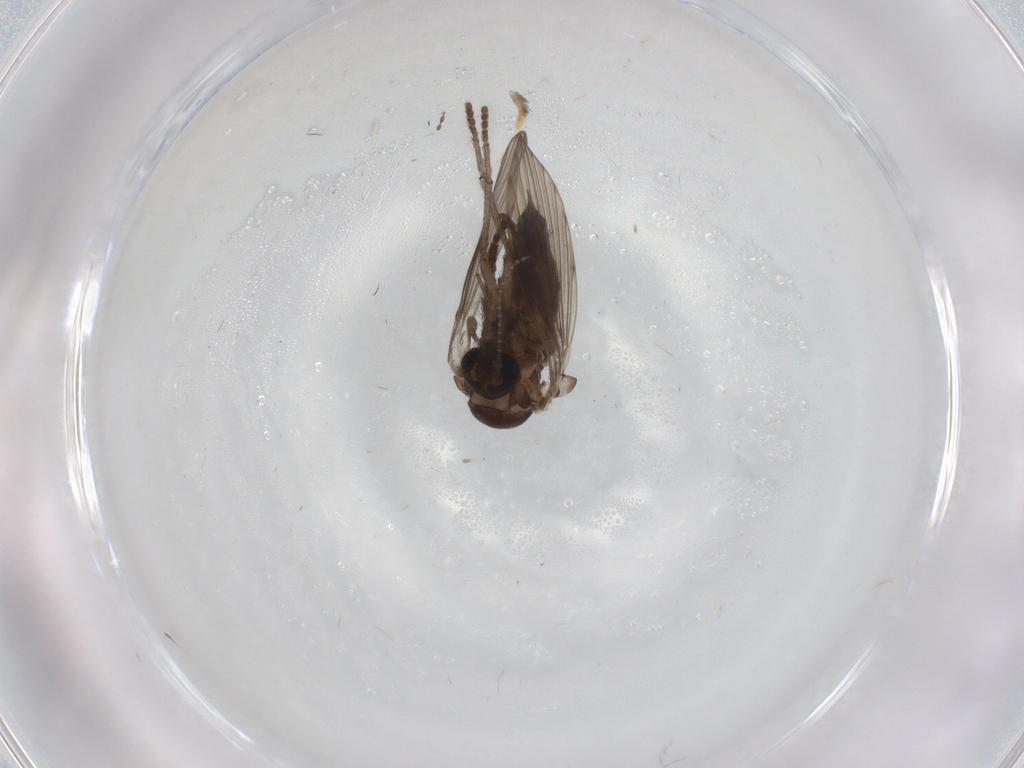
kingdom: Animalia
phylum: Arthropoda
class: Insecta
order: Diptera
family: Psychodidae
